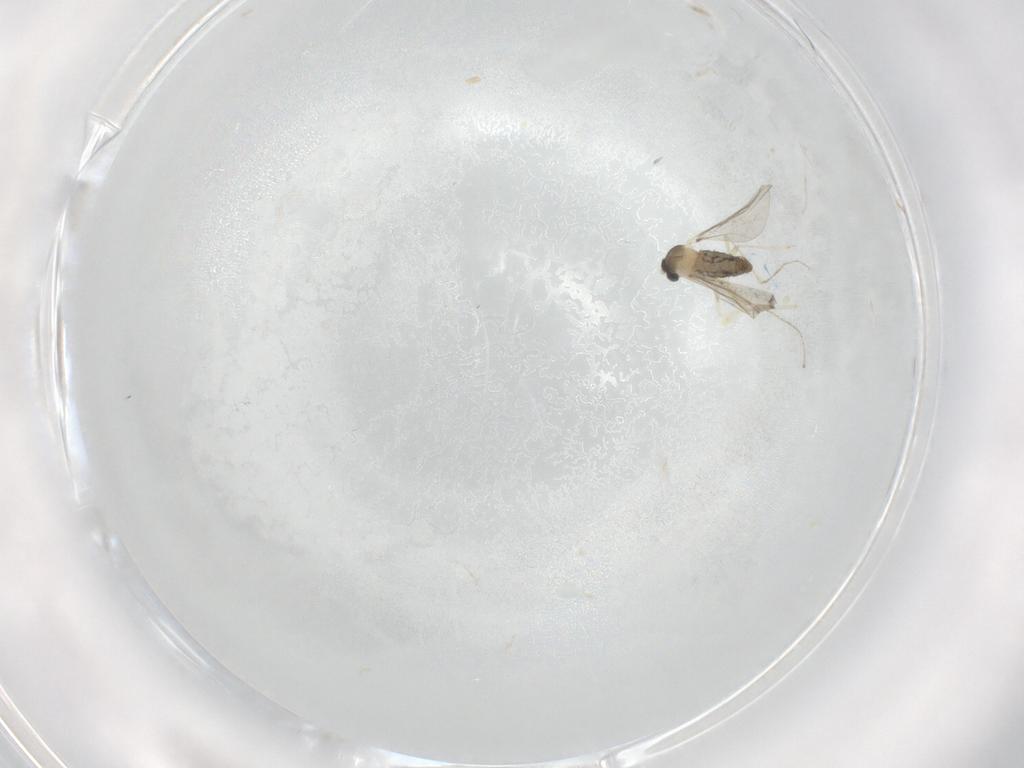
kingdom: Animalia
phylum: Arthropoda
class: Insecta
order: Diptera
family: Cecidomyiidae
